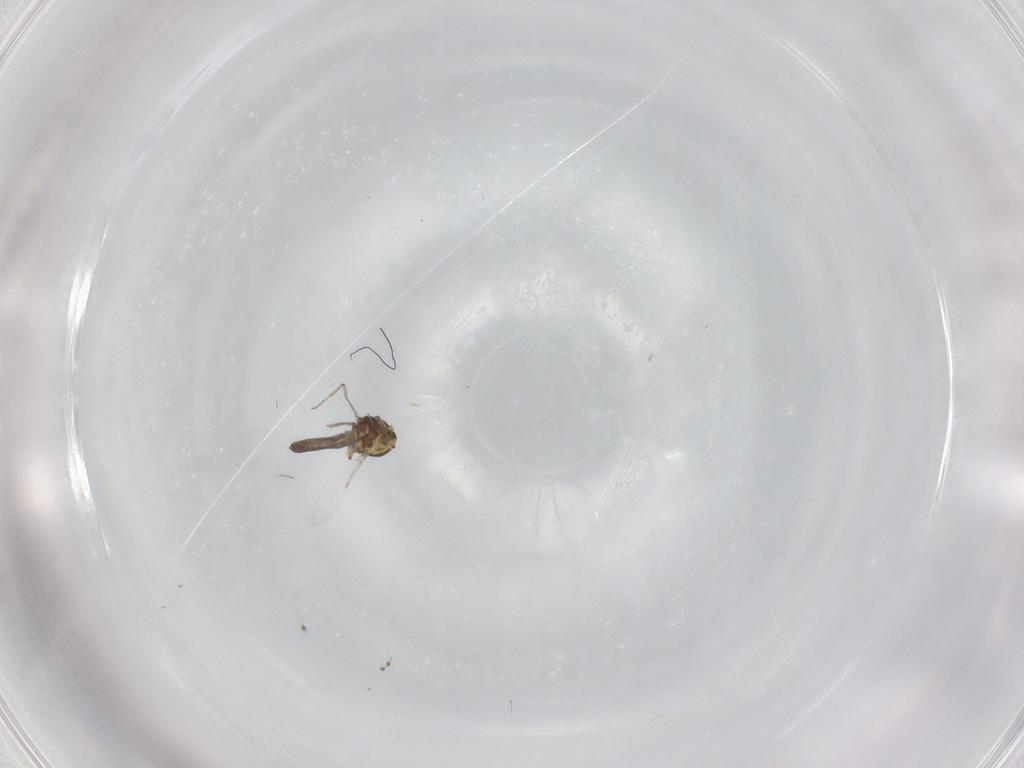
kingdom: Animalia
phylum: Arthropoda
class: Insecta
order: Diptera
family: Ceratopogonidae
